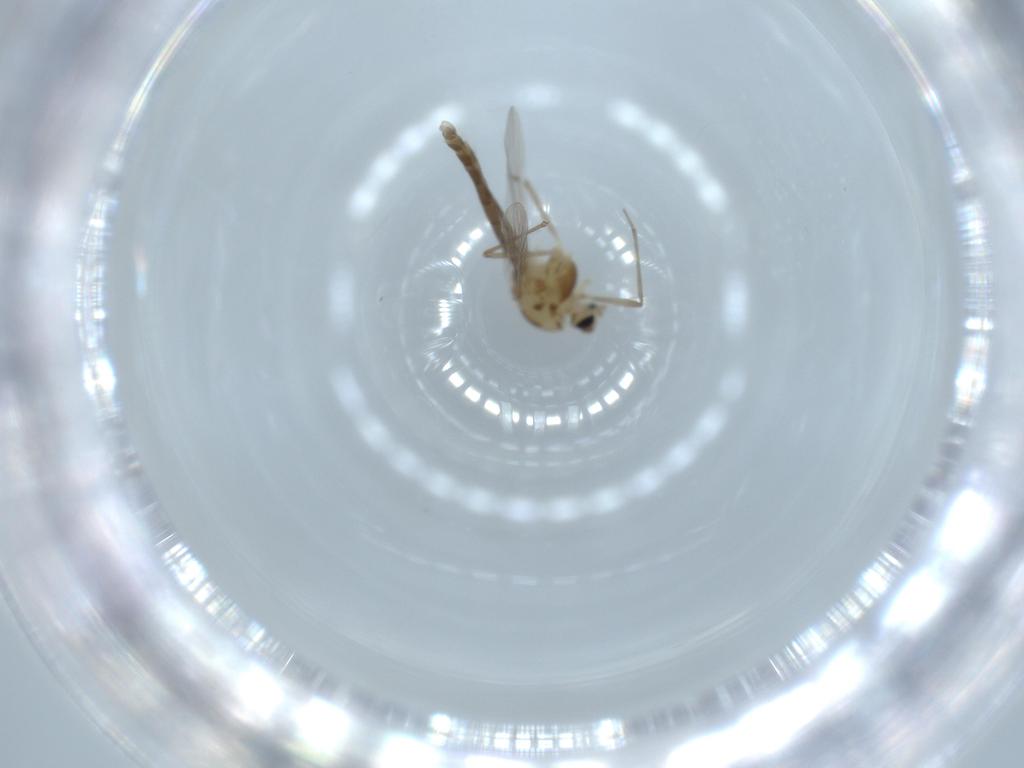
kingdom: Animalia
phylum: Arthropoda
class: Insecta
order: Diptera
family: Chironomidae
